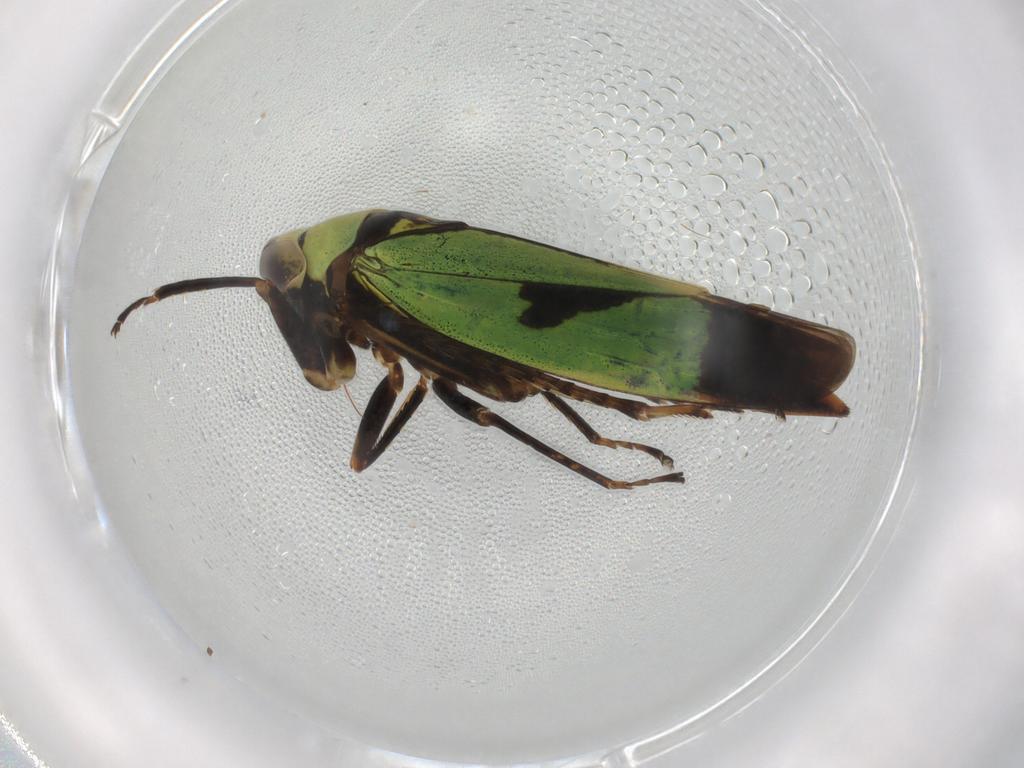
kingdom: Animalia
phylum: Arthropoda
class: Insecta
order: Hemiptera
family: Cicadellidae
